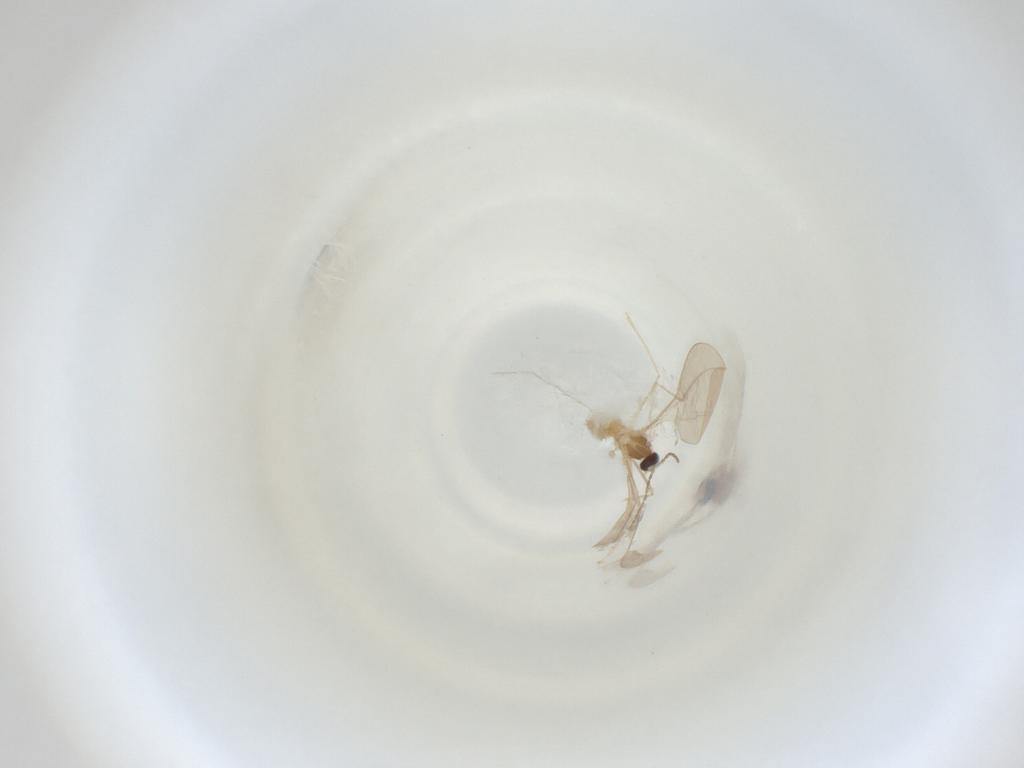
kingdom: Animalia
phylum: Arthropoda
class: Insecta
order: Diptera
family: Cecidomyiidae
